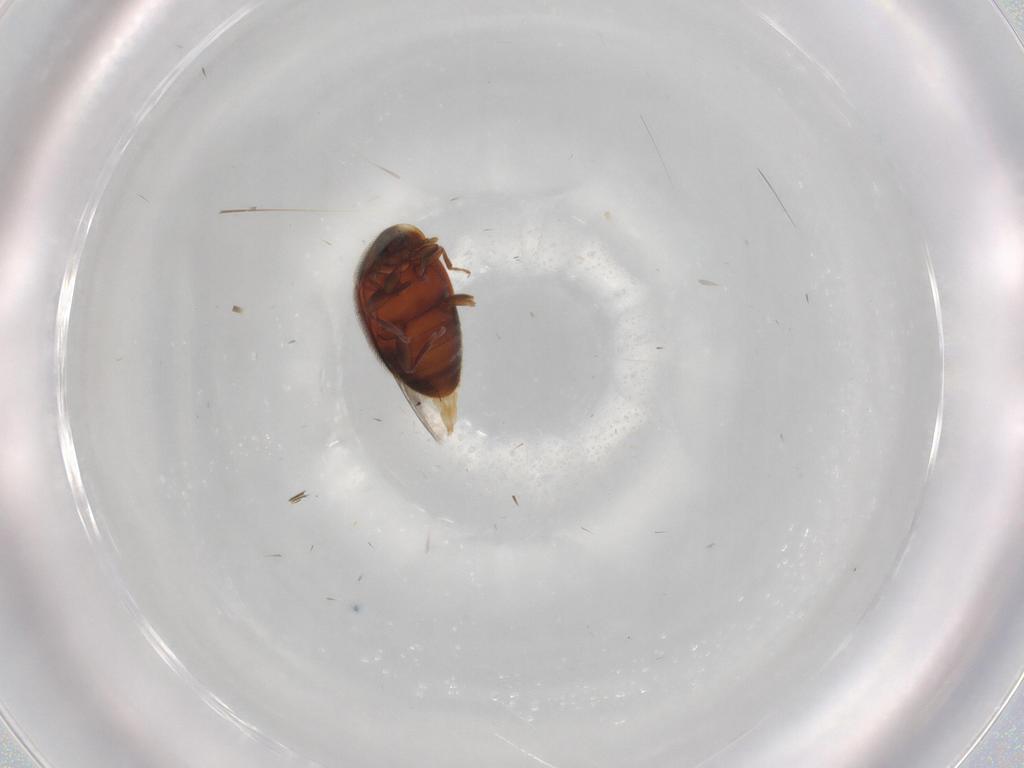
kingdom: Animalia
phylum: Arthropoda
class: Insecta
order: Coleoptera
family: Corylophidae
